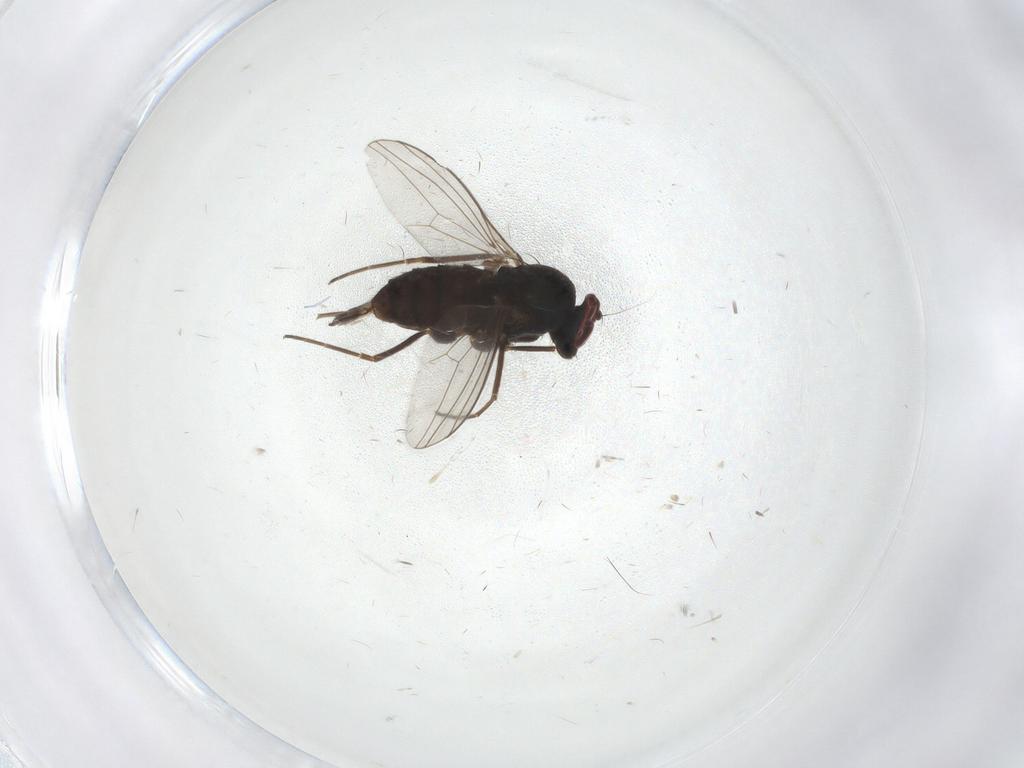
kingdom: Animalia
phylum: Arthropoda
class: Insecta
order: Diptera
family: Dolichopodidae
